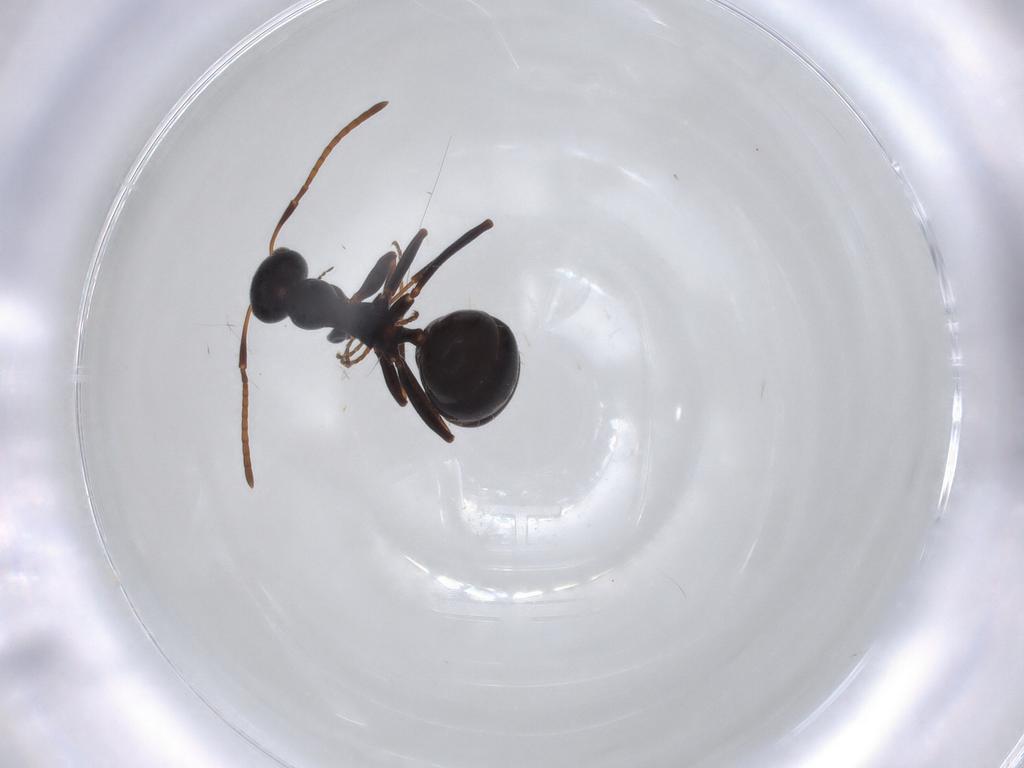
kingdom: Animalia
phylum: Arthropoda
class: Insecta
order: Hymenoptera
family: Formicidae
